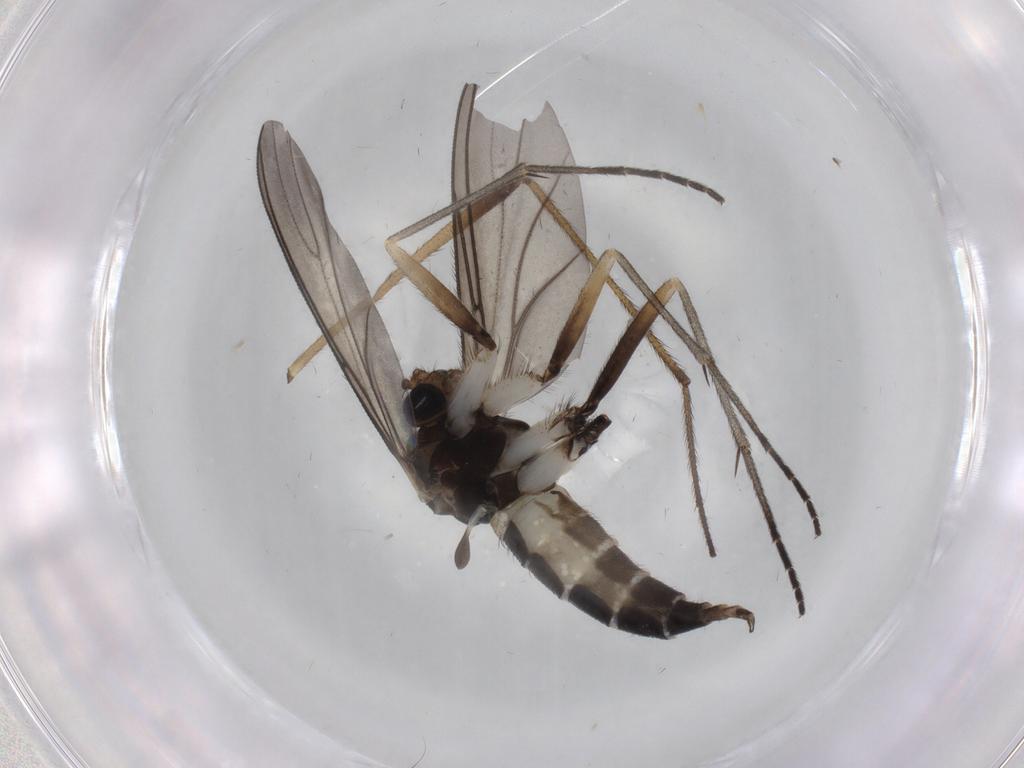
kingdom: Animalia
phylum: Arthropoda
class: Insecta
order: Diptera
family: Sciaridae
